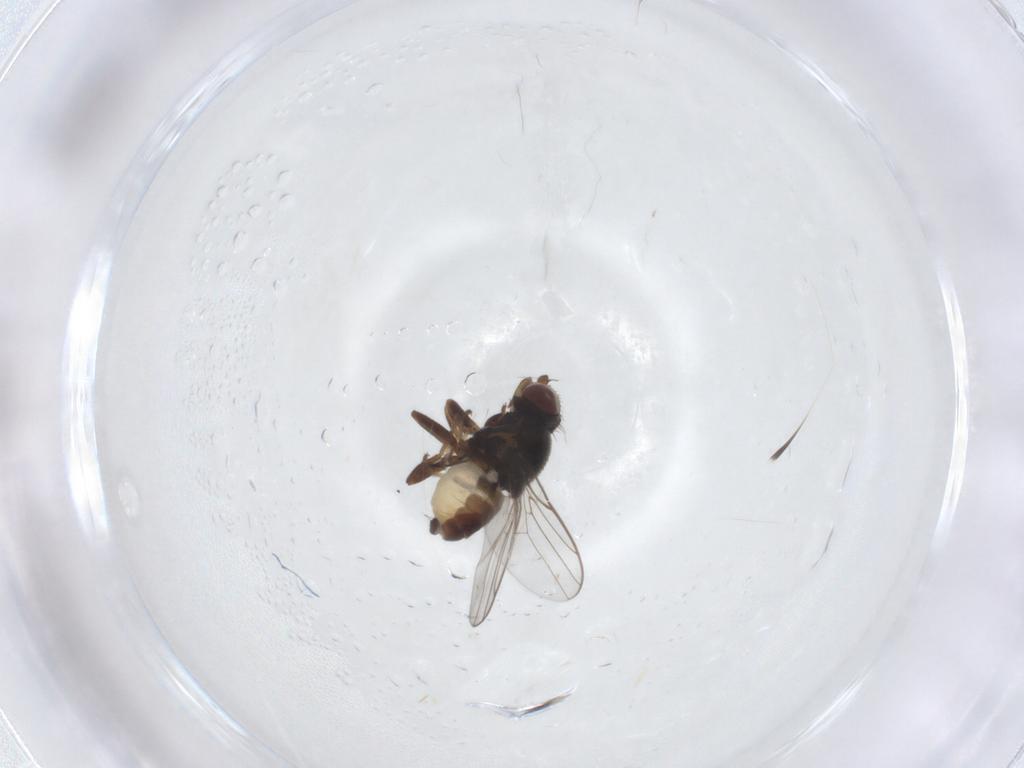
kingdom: Animalia
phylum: Arthropoda
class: Insecta
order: Diptera
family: Chloropidae
